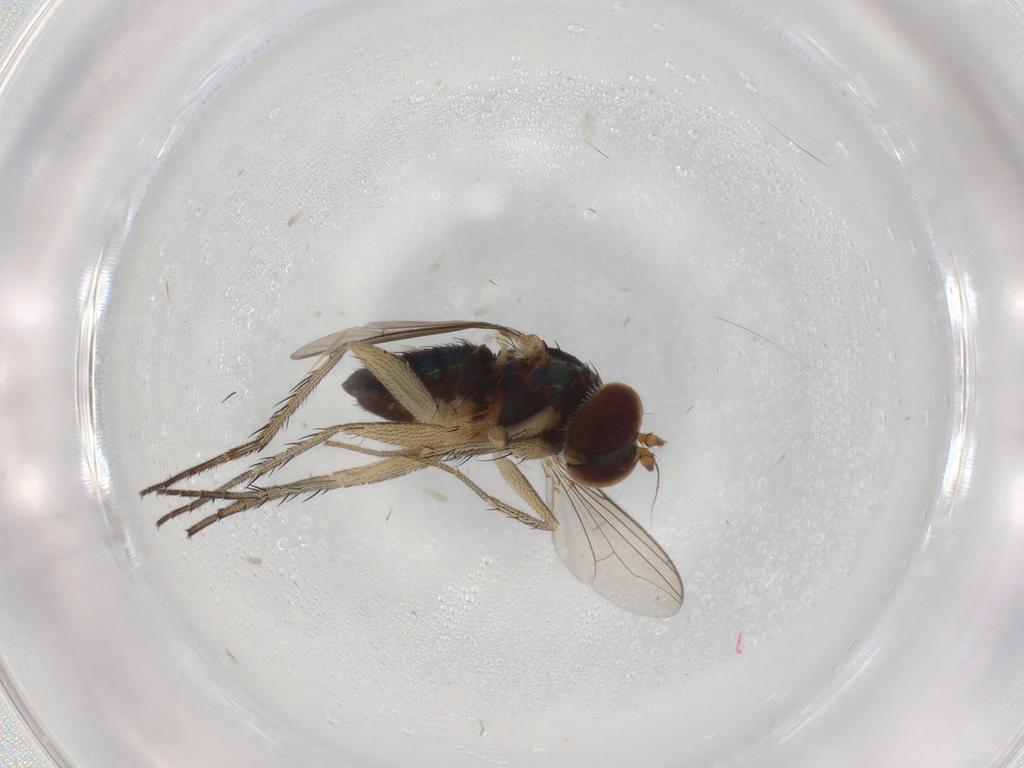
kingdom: Animalia
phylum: Arthropoda
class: Insecta
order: Diptera
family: Dolichopodidae
